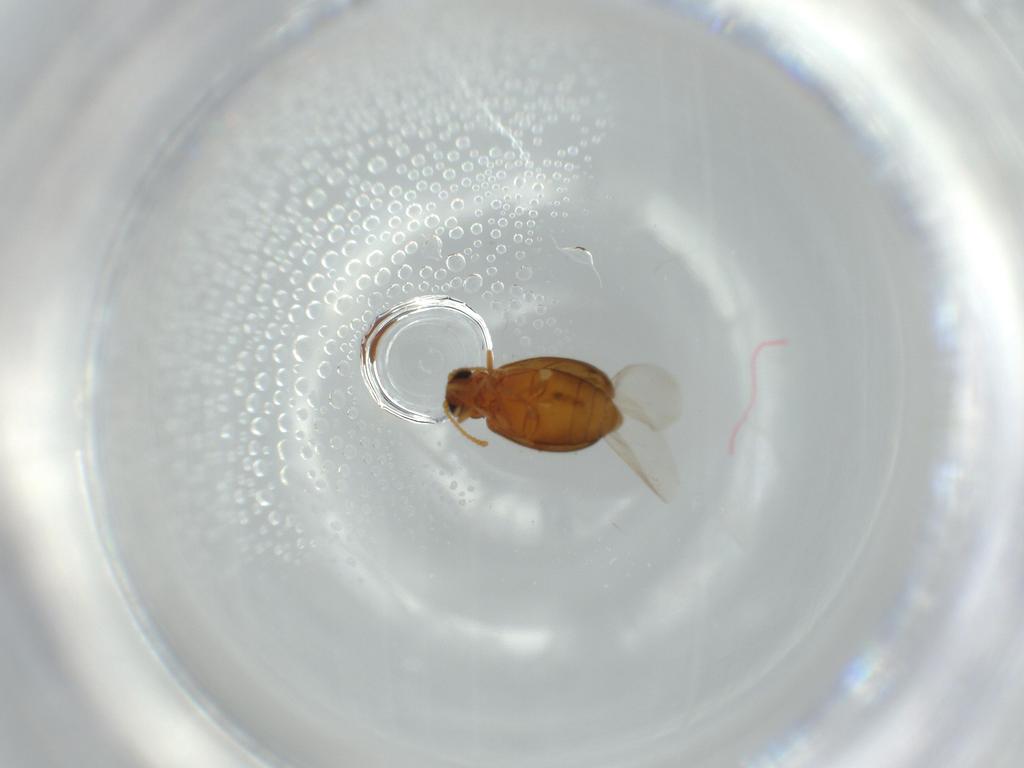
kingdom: Animalia
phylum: Arthropoda
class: Insecta
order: Coleoptera
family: Aderidae
